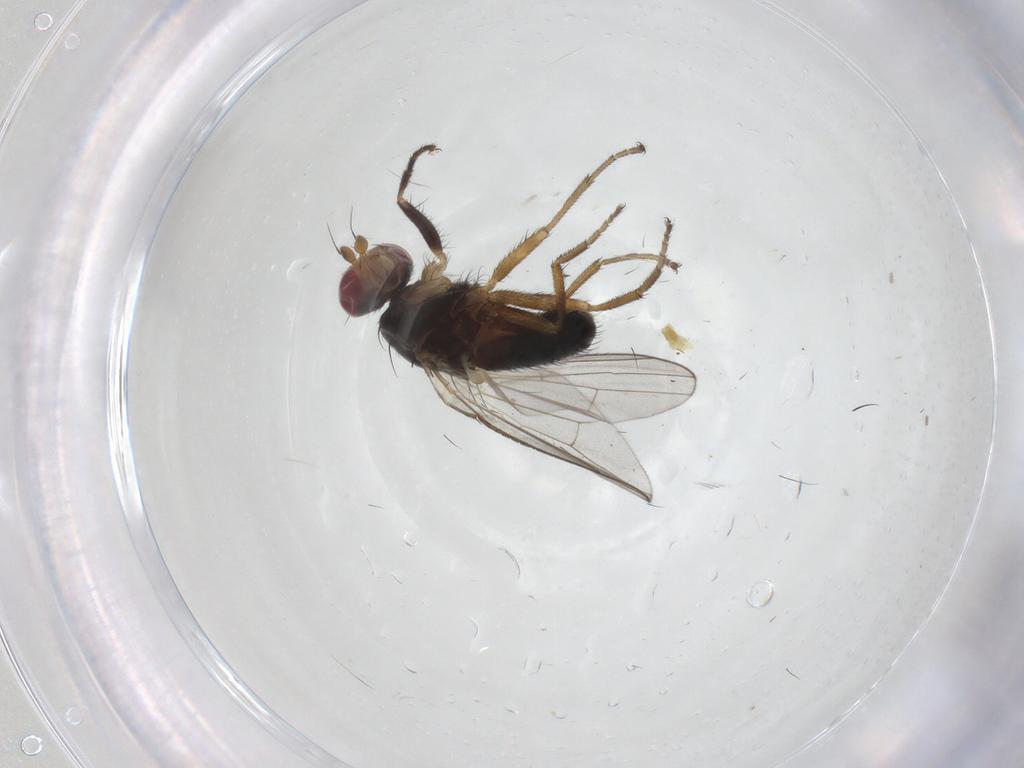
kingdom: Animalia
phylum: Arthropoda
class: Insecta
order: Diptera
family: Heleomyzidae
